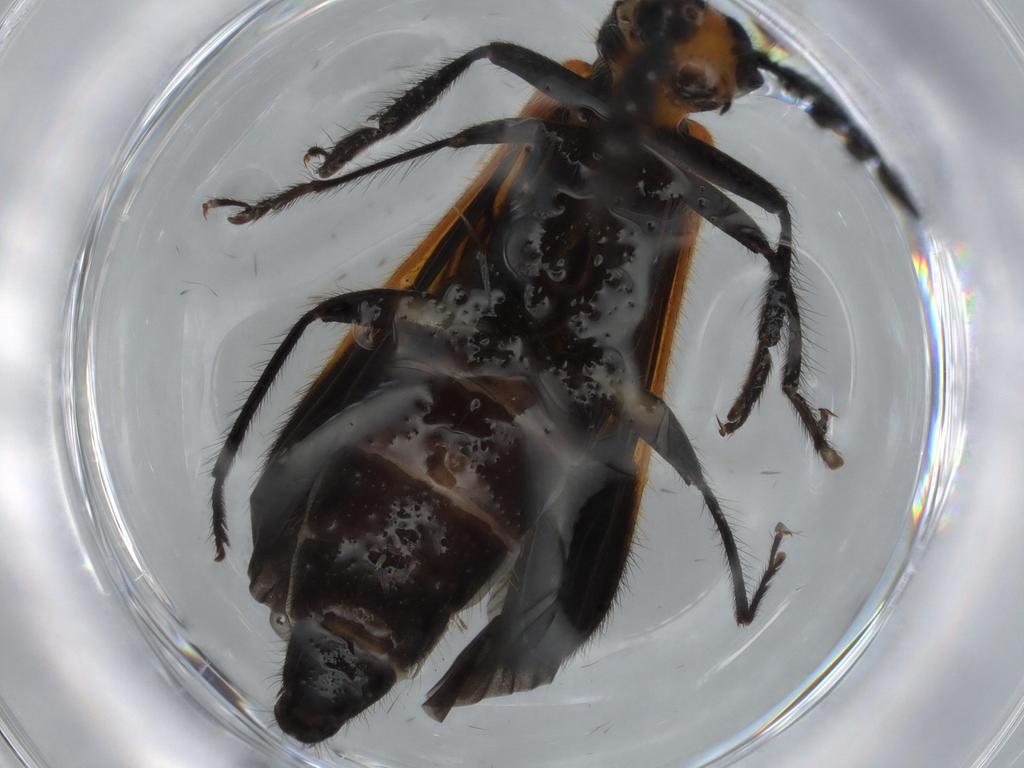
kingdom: Animalia
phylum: Arthropoda
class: Insecta
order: Coleoptera
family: Cleridae
